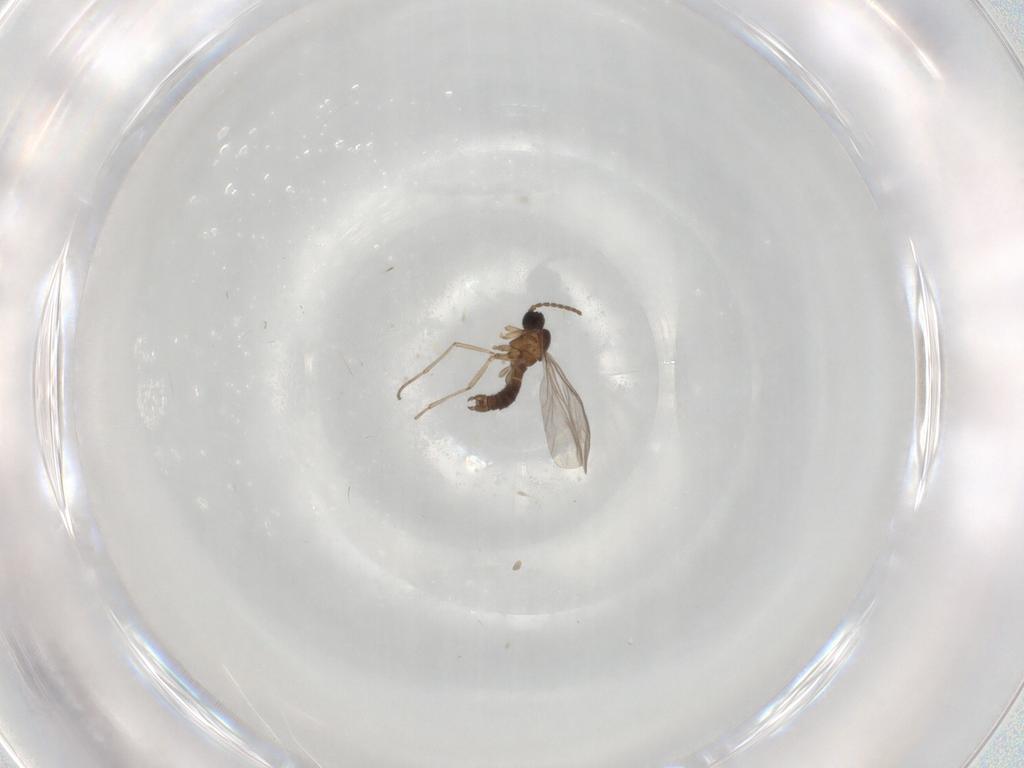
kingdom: Animalia
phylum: Arthropoda
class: Insecta
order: Diptera
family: Sciaridae
